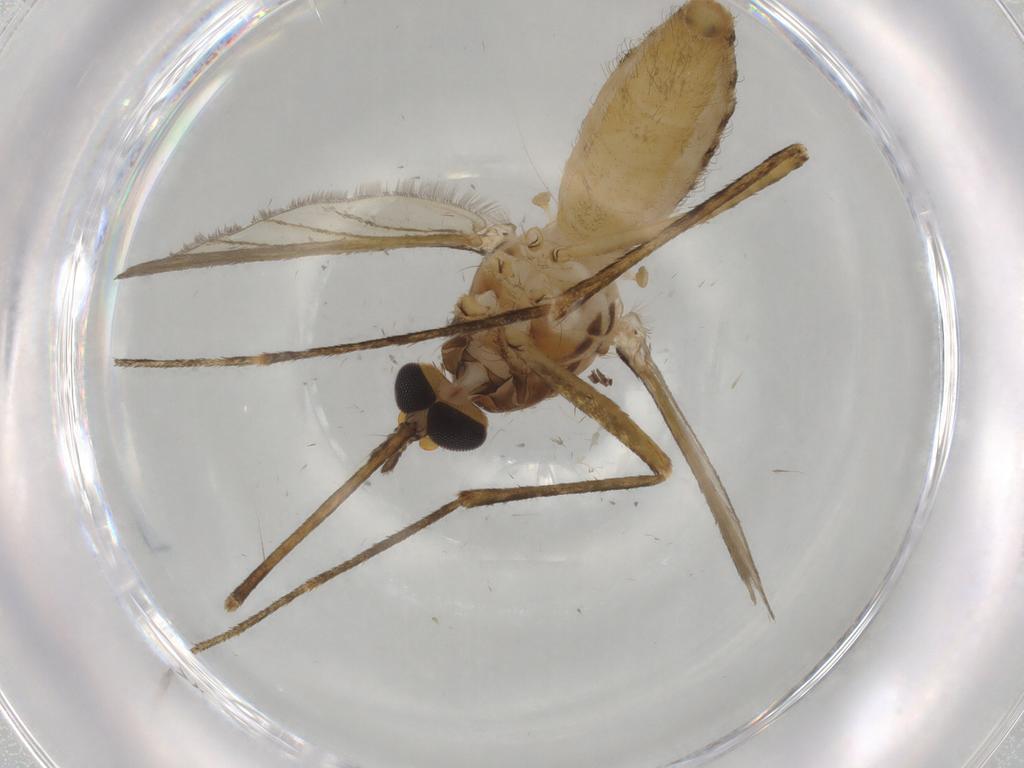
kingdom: Animalia
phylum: Arthropoda
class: Insecta
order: Diptera
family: Culicidae
